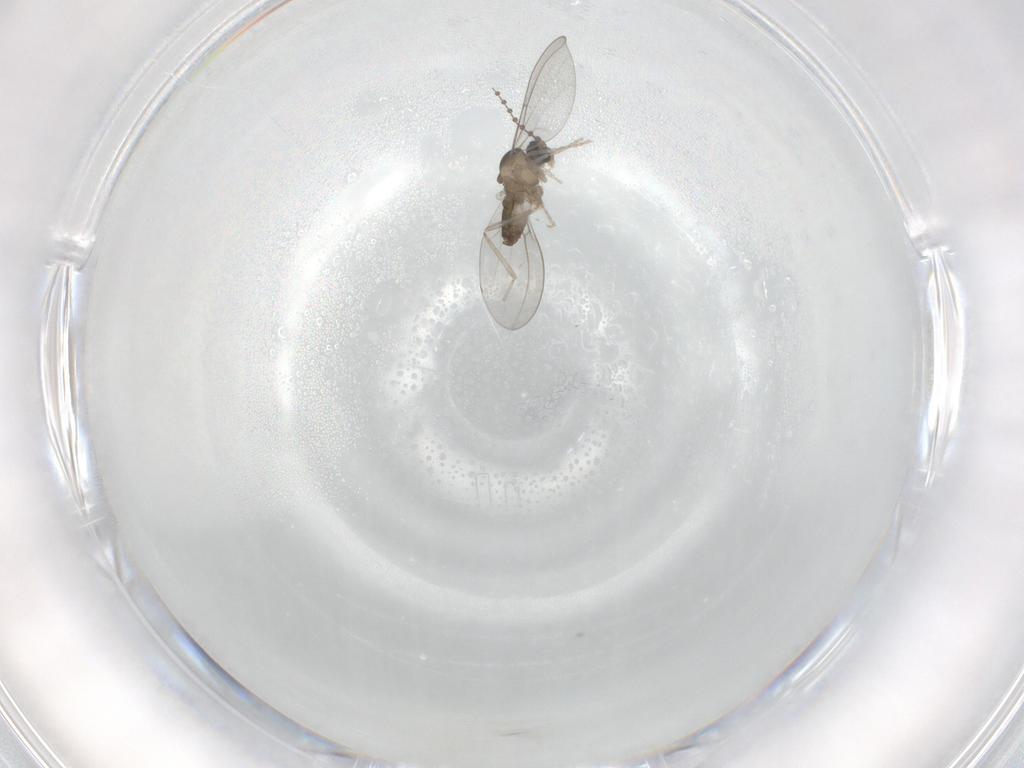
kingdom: Animalia
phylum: Arthropoda
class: Insecta
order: Diptera
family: Cecidomyiidae
